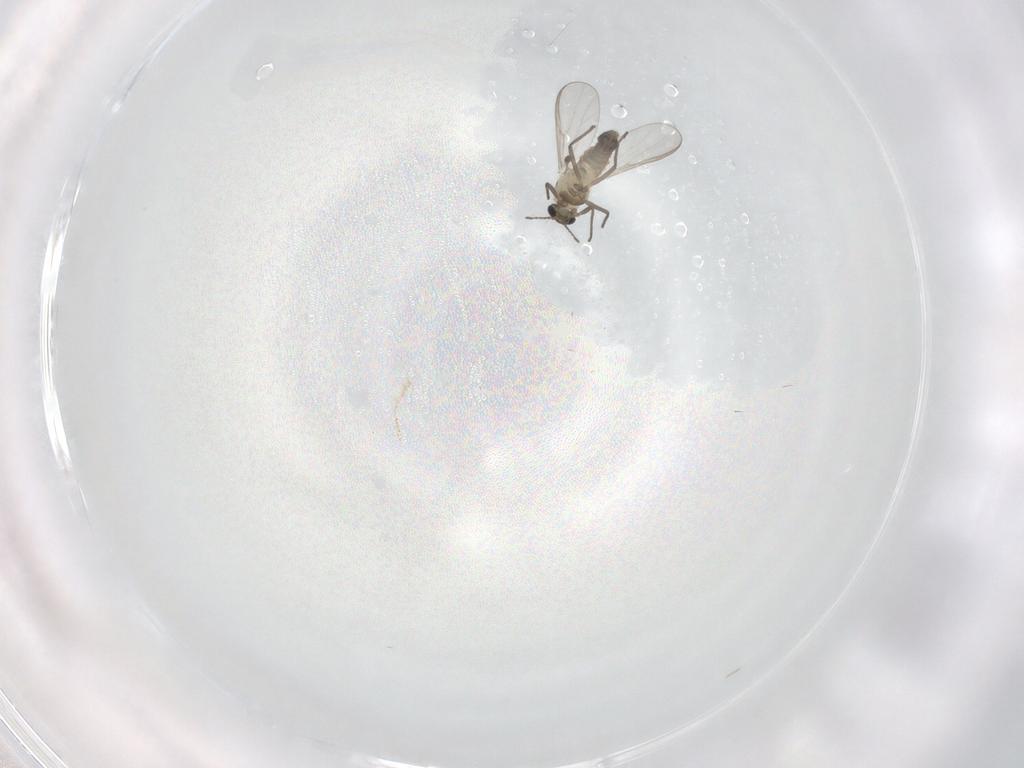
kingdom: Animalia
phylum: Arthropoda
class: Insecta
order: Diptera
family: Chironomidae
